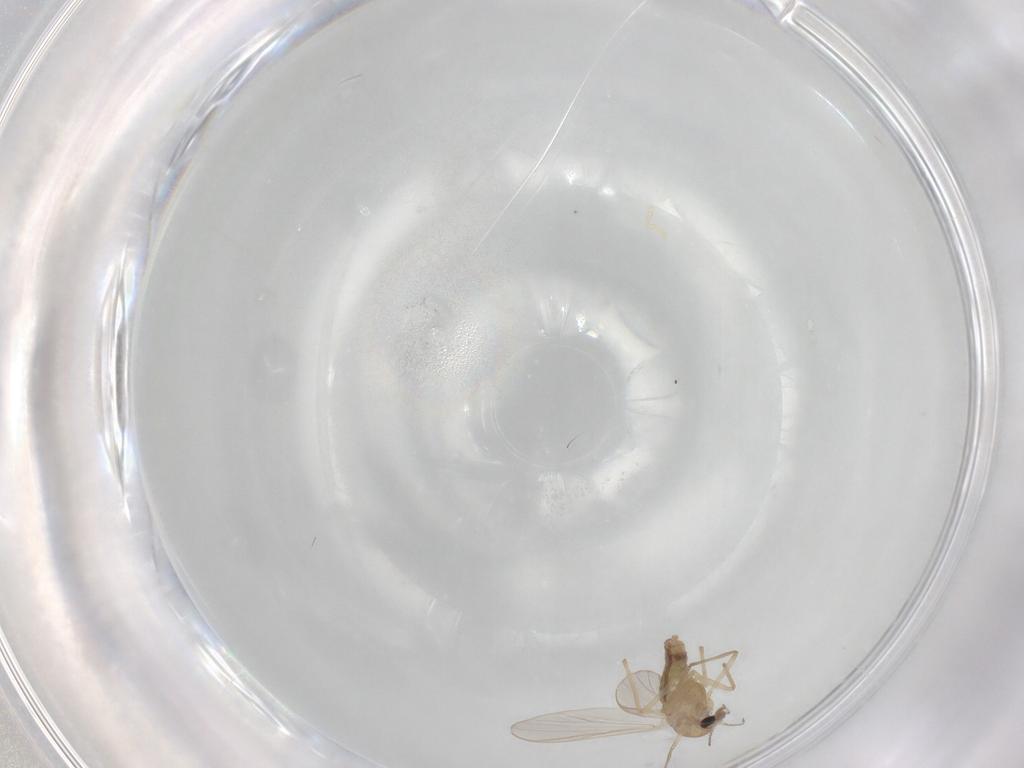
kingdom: Animalia
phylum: Arthropoda
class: Insecta
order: Diptera
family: Chironomidae
